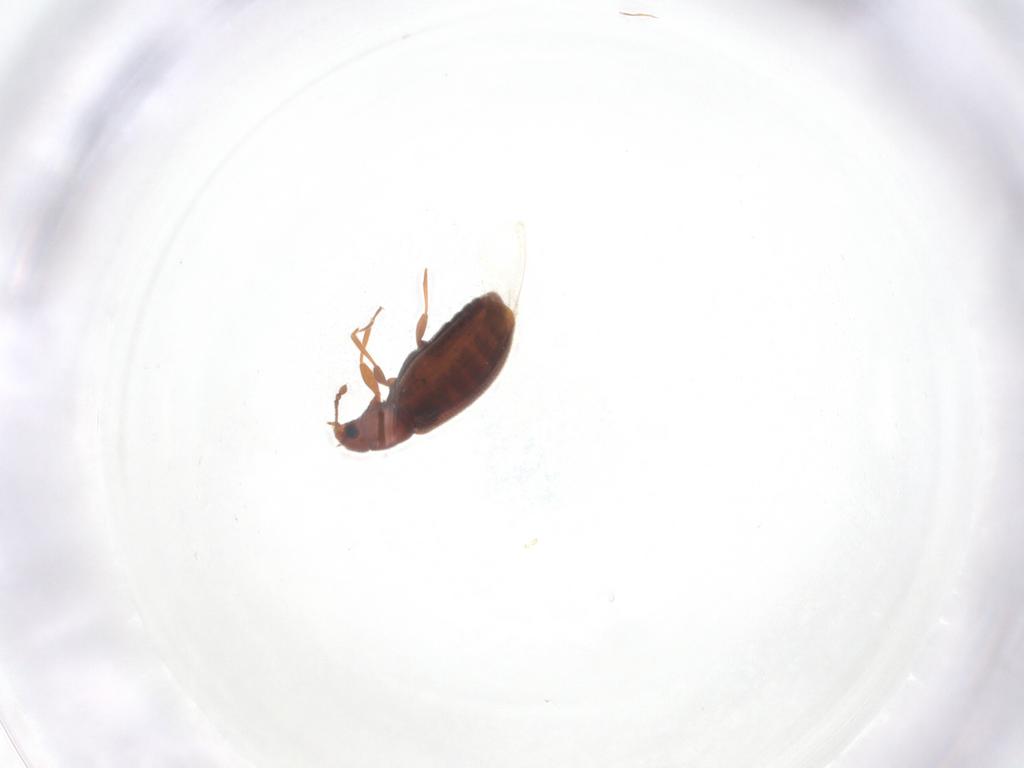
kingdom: Animalia
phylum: Arthropoda
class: Insecta
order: Coleoptera
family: Latridiidae
